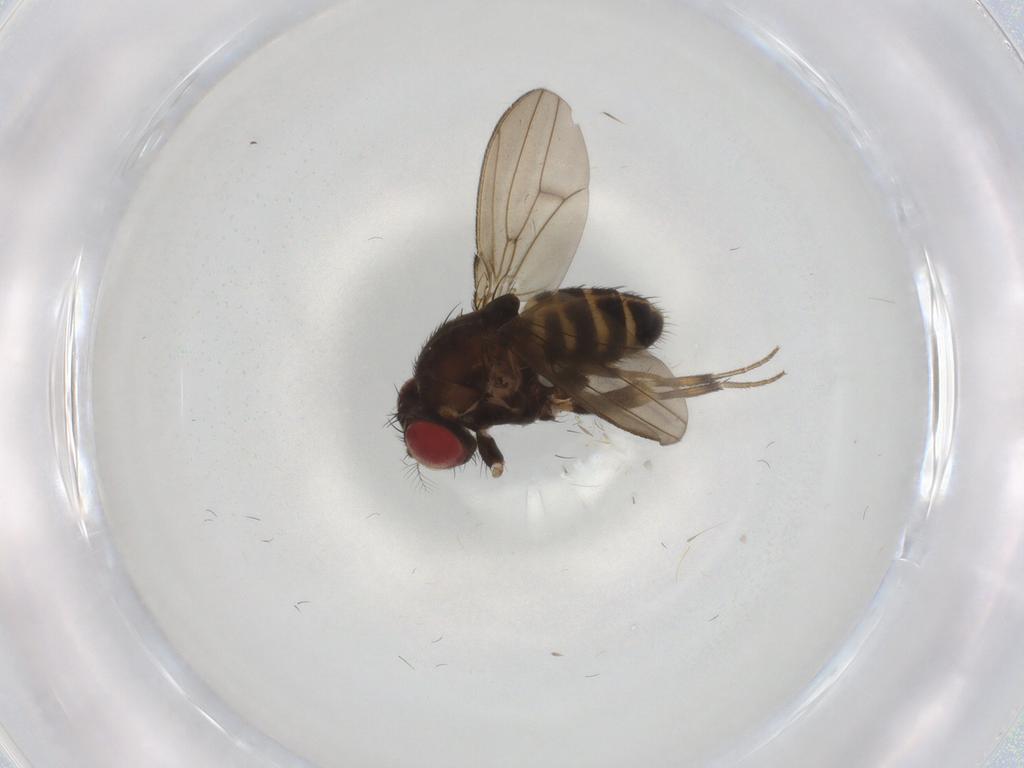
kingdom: Animalia
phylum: Arthropoda
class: Insecta
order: Diptera
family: Drosophilidae
